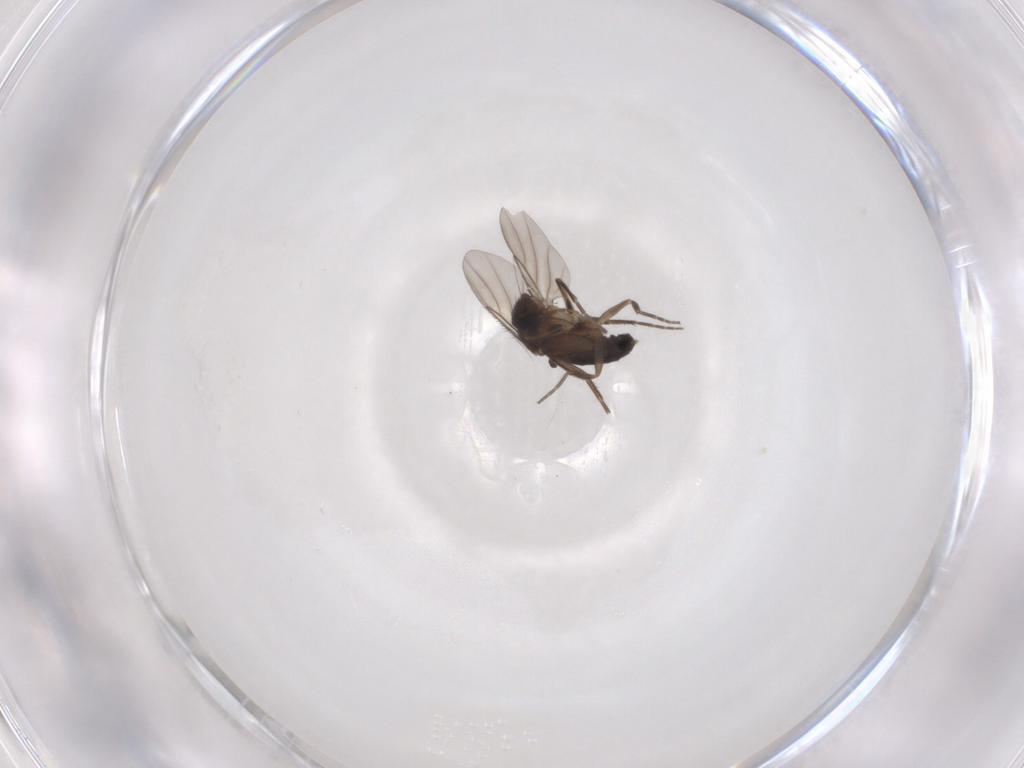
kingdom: Animalia
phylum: Arthropoda
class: Insecta
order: Diptera
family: Phoridae
